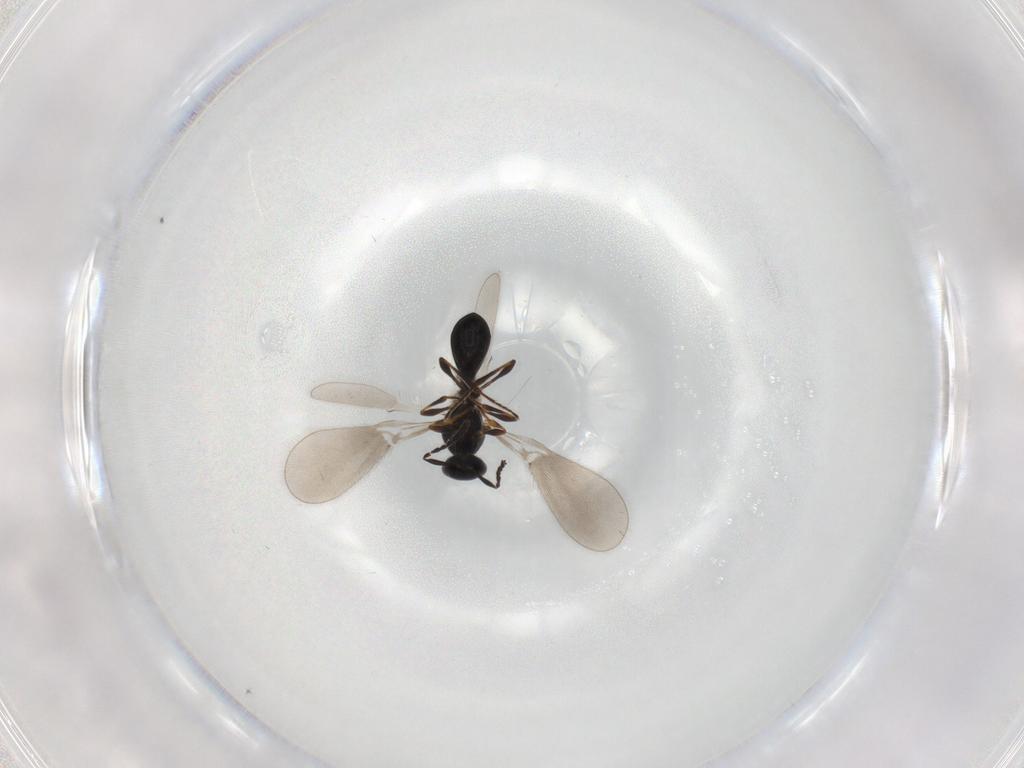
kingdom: Animalia
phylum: Arthropoda
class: Insecta
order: Hymenoptera
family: Platygastridae
